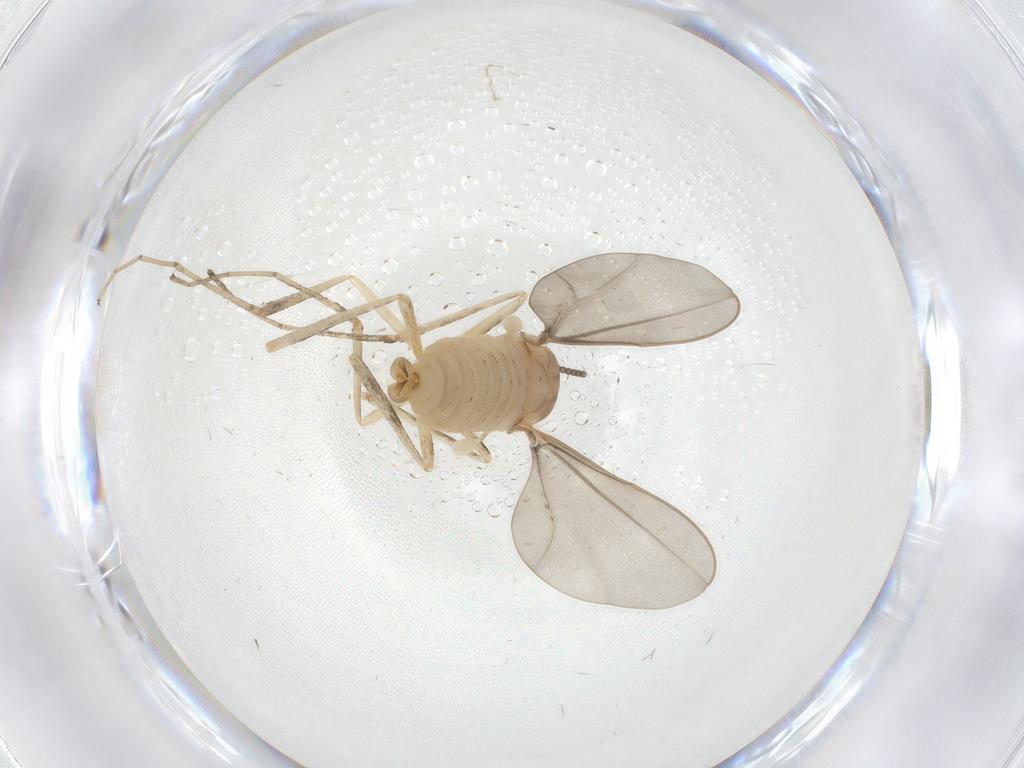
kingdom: Animalia
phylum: Arthropoda
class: Insecta
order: Diptera
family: Cecidomyiidae
